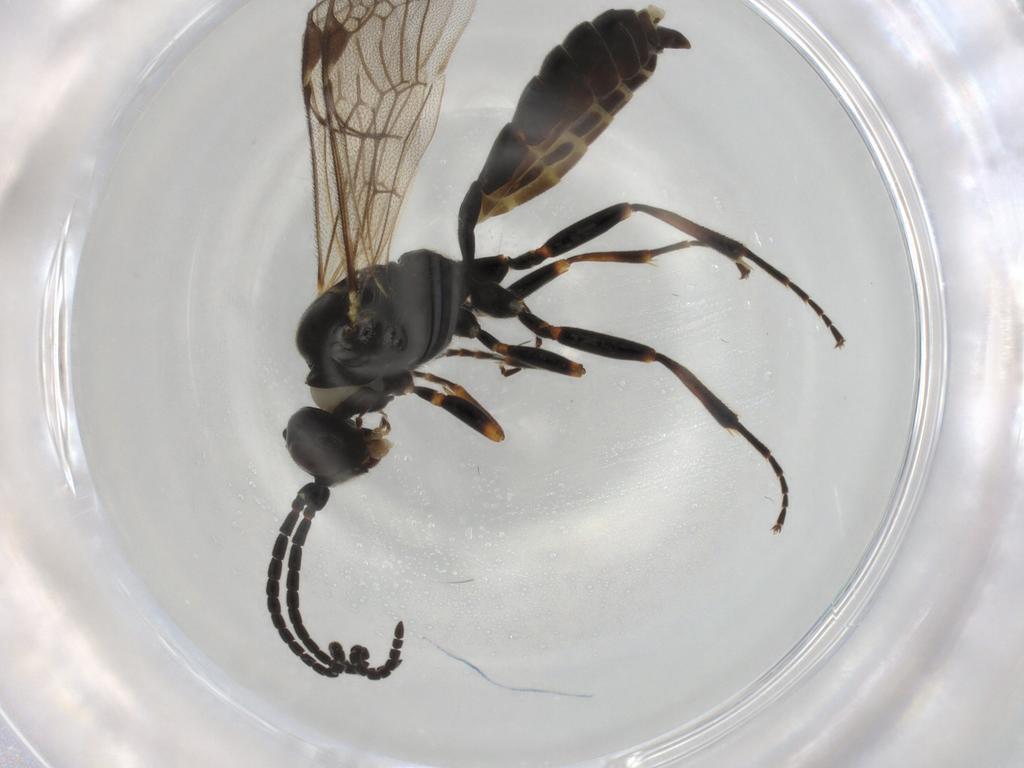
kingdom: Animalia
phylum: Arthropoda
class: Insecta
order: Hymenoptera
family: Ichneumonidae
